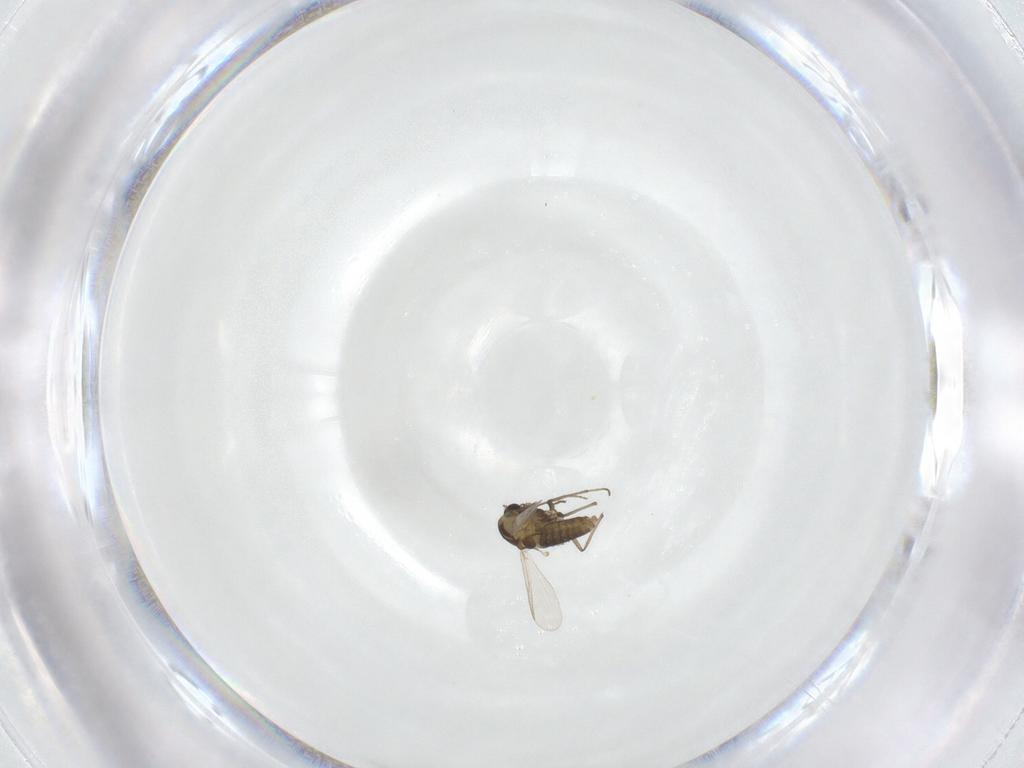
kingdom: Animalia
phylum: Arthropoda
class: Insecta
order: Diptera
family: Chironomidae
